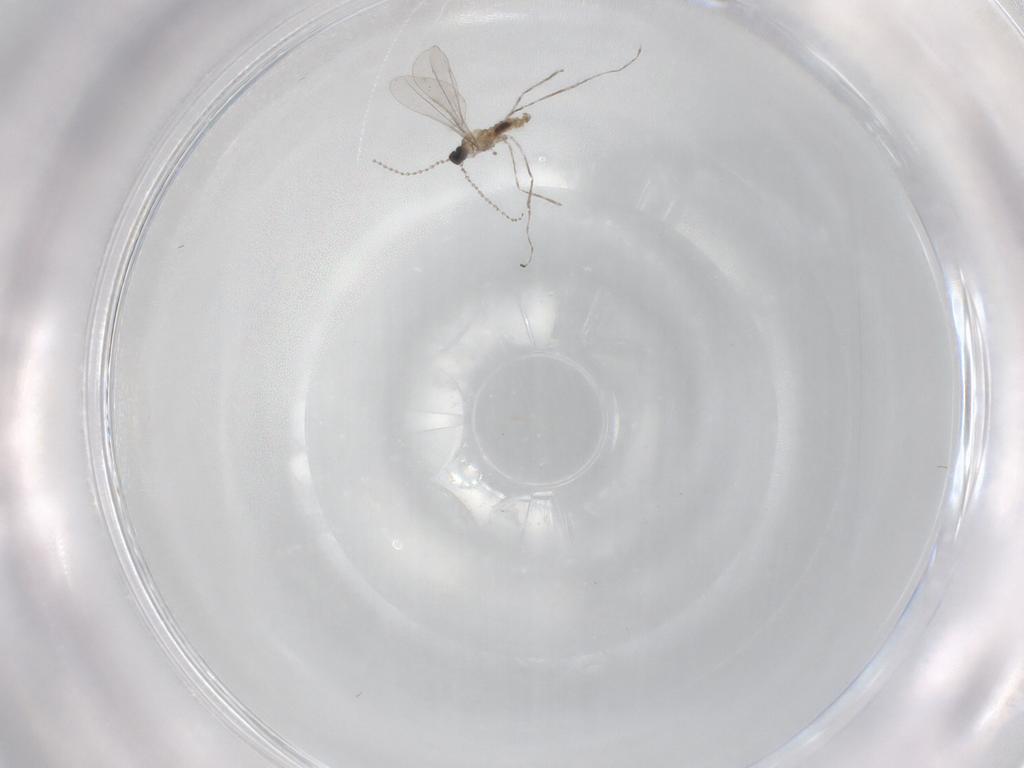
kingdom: Animalia
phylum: Arthropoda
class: Insecta
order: Diptera
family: Cecidomyiidae
